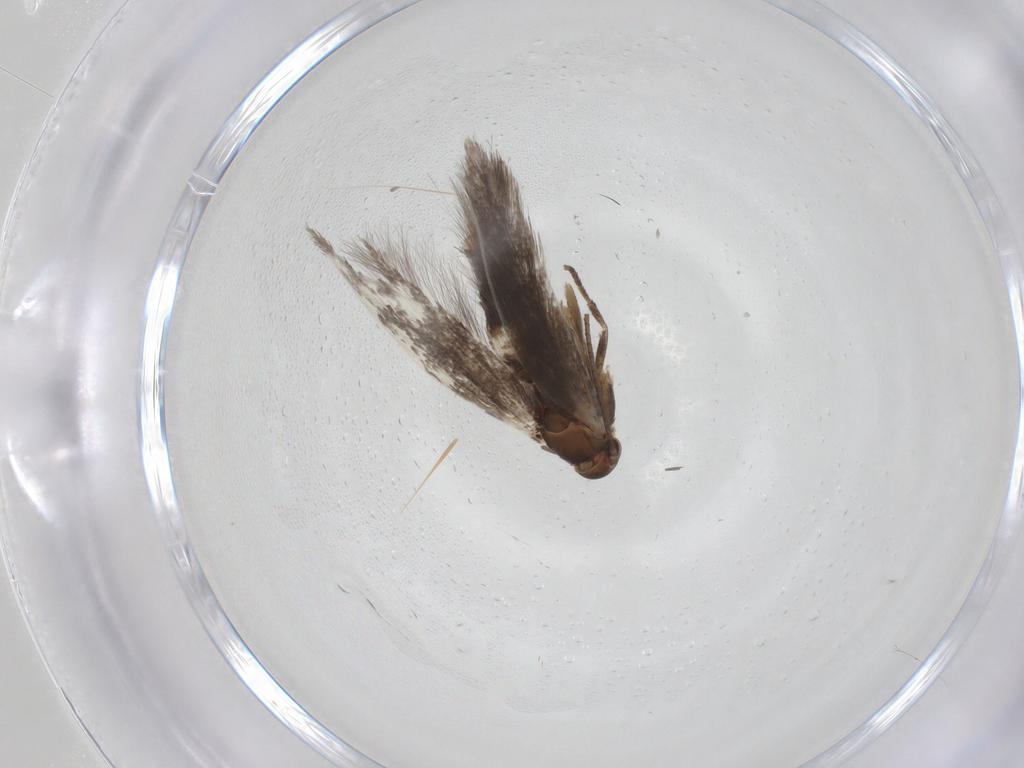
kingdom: Animalia
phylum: Arthropoda
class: Insecta
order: Lepidoptera
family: Elachistidae
